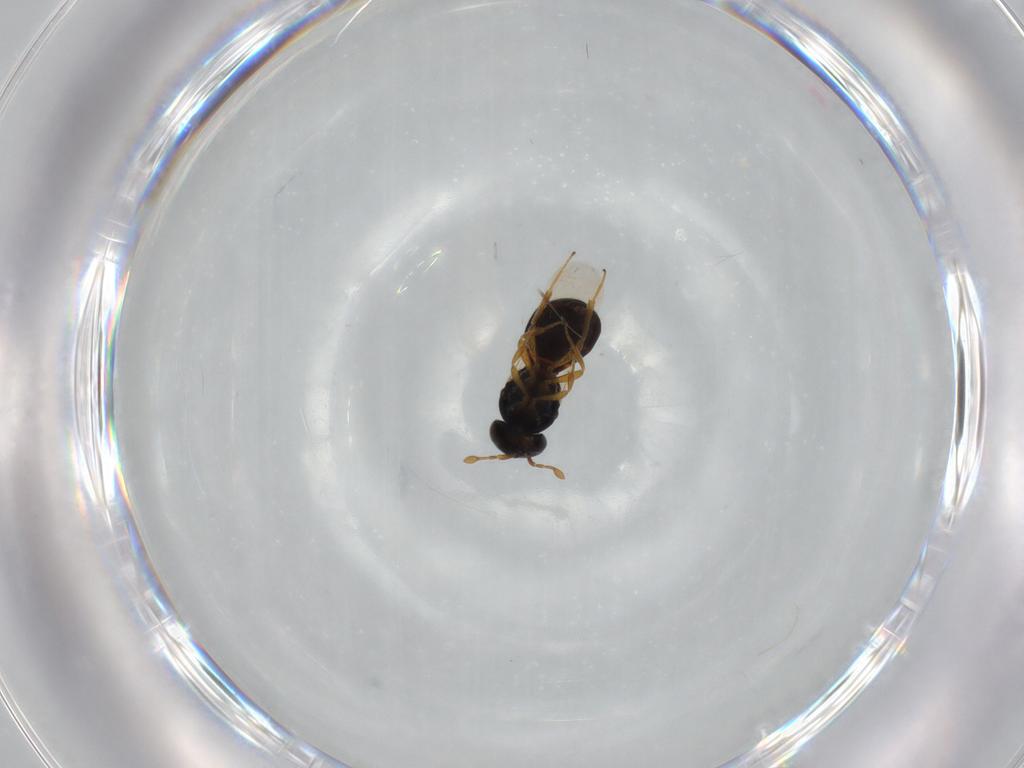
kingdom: Animalia
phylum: Arthropoda
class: Insecta
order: Hymenoptera
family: Scelionidae
